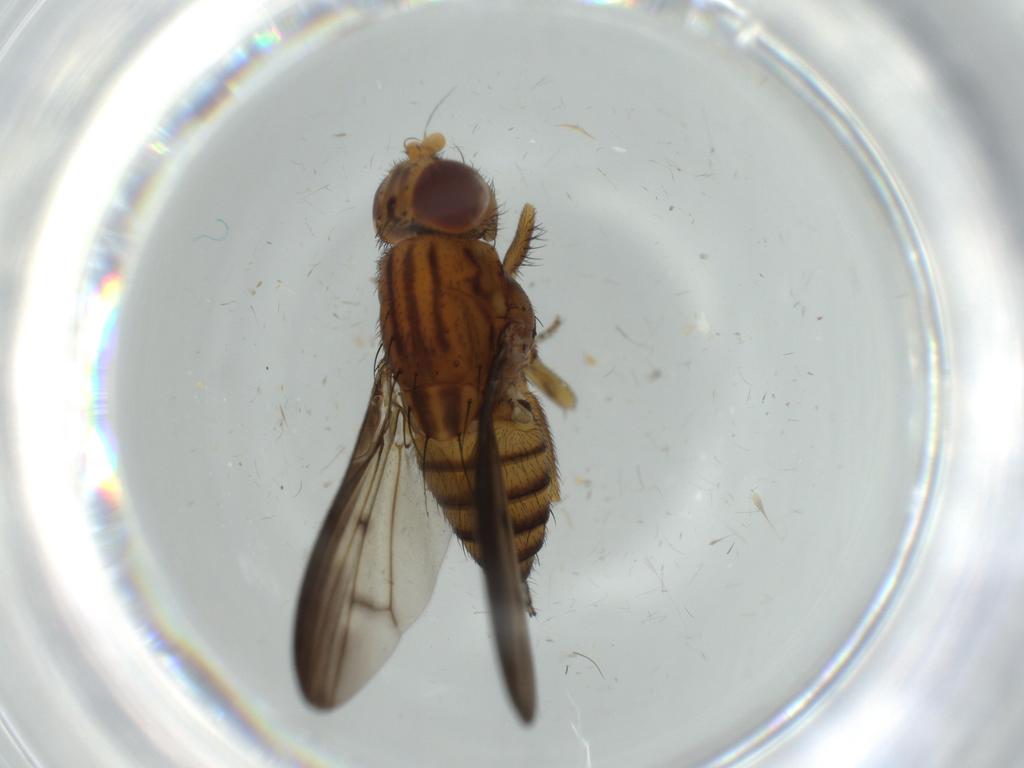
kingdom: Animalia
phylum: Arthropoda
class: Insecta
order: Diptera
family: Lauxaniidae
